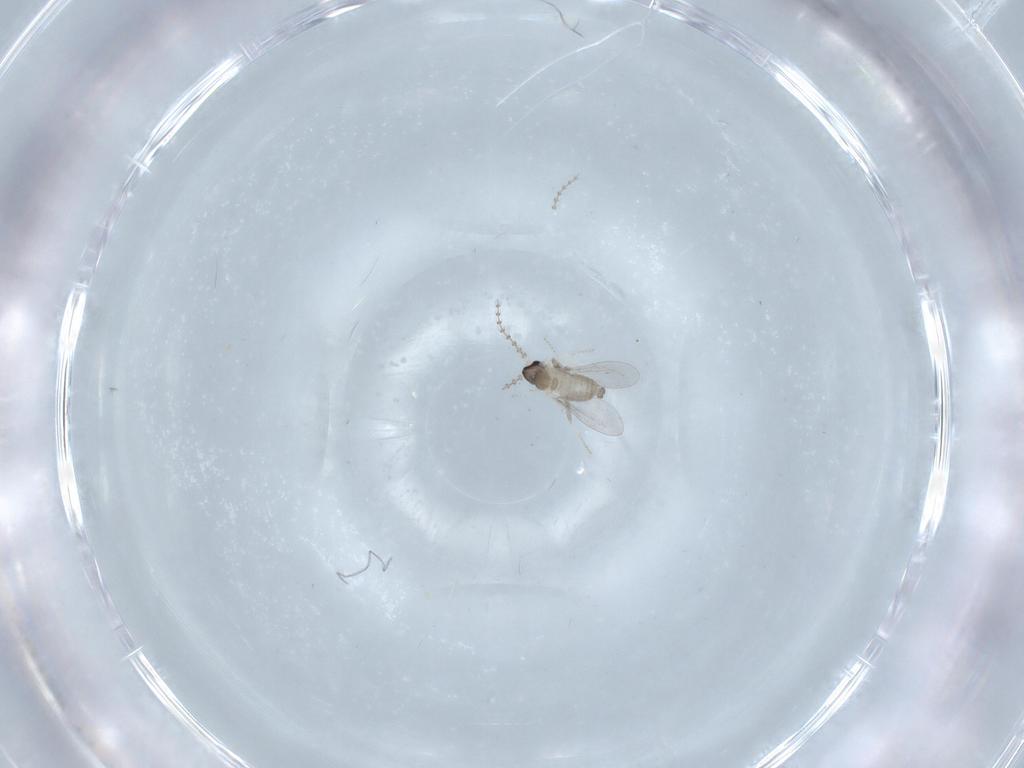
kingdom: Animalia
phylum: Arthropoda
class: Insecta
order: Diptera
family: Cecidomyiidae
